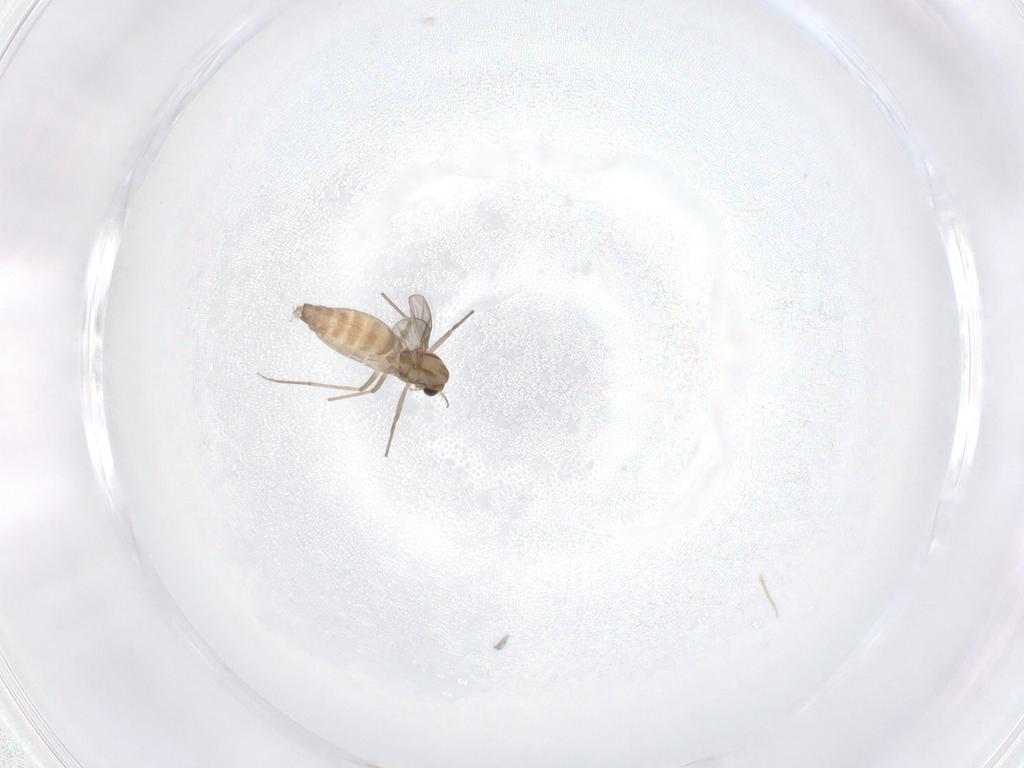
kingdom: Animalia
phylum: Arthropoda
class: Insecta
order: Diptera
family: Chironomidae
